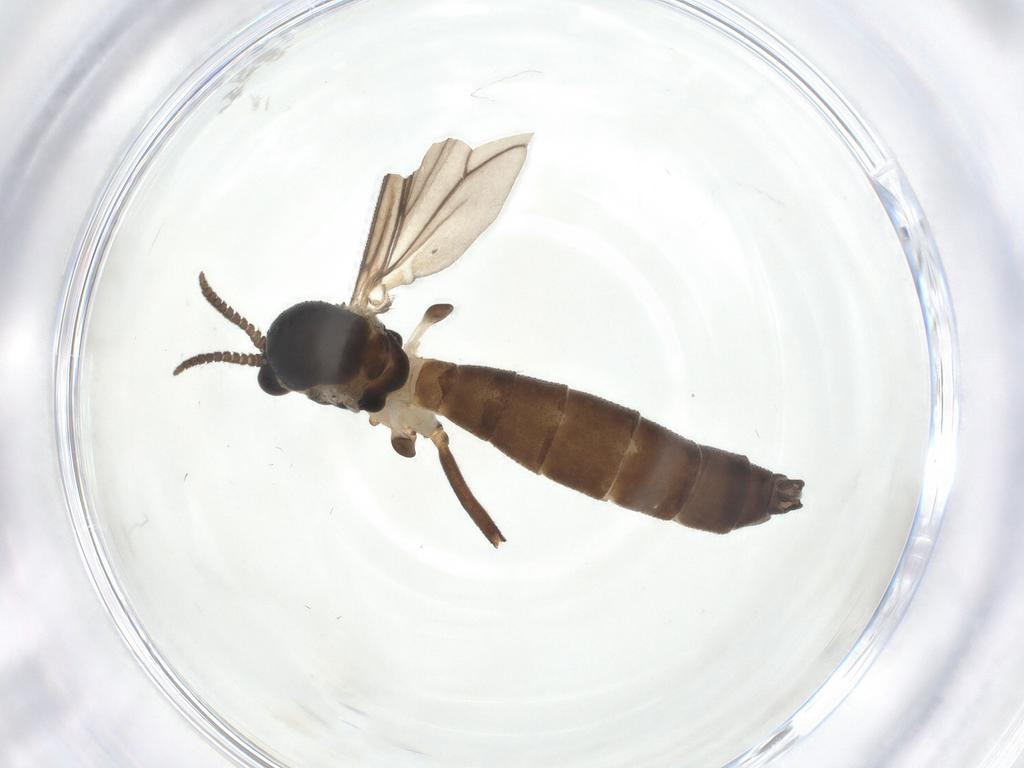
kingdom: Animalia
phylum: Arthropoda
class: Insecta
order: Diptera
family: Mycetophilidae
